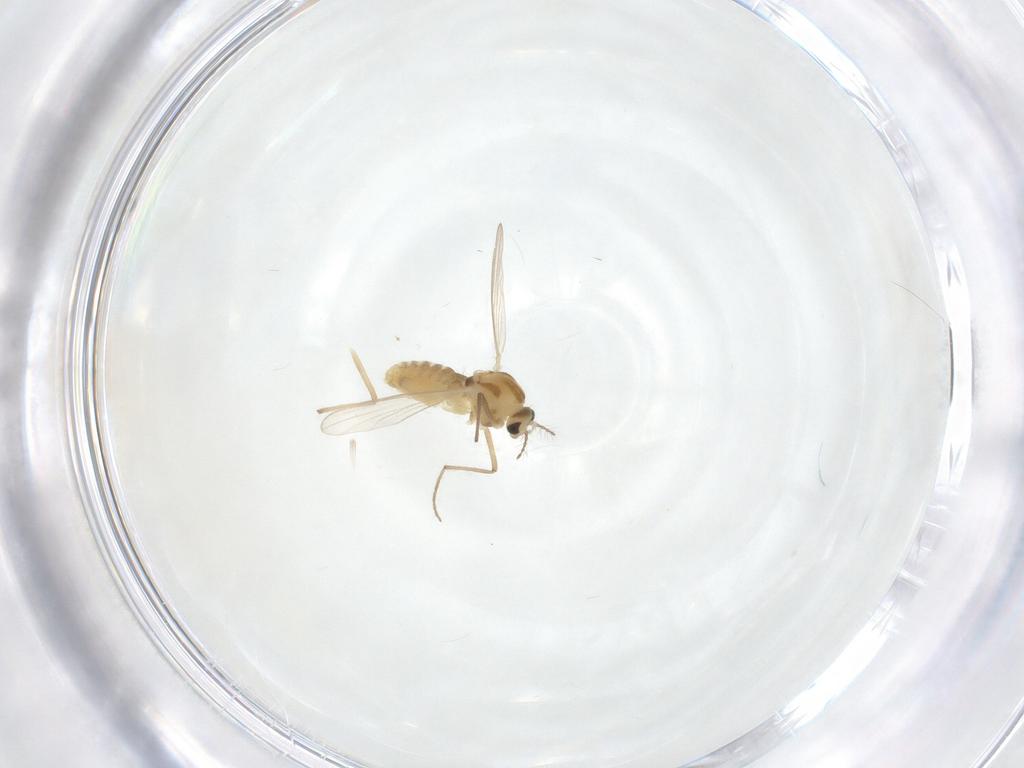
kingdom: Animalia
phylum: Arthropoda
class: Insecta
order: Diptera
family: Chironomidae
